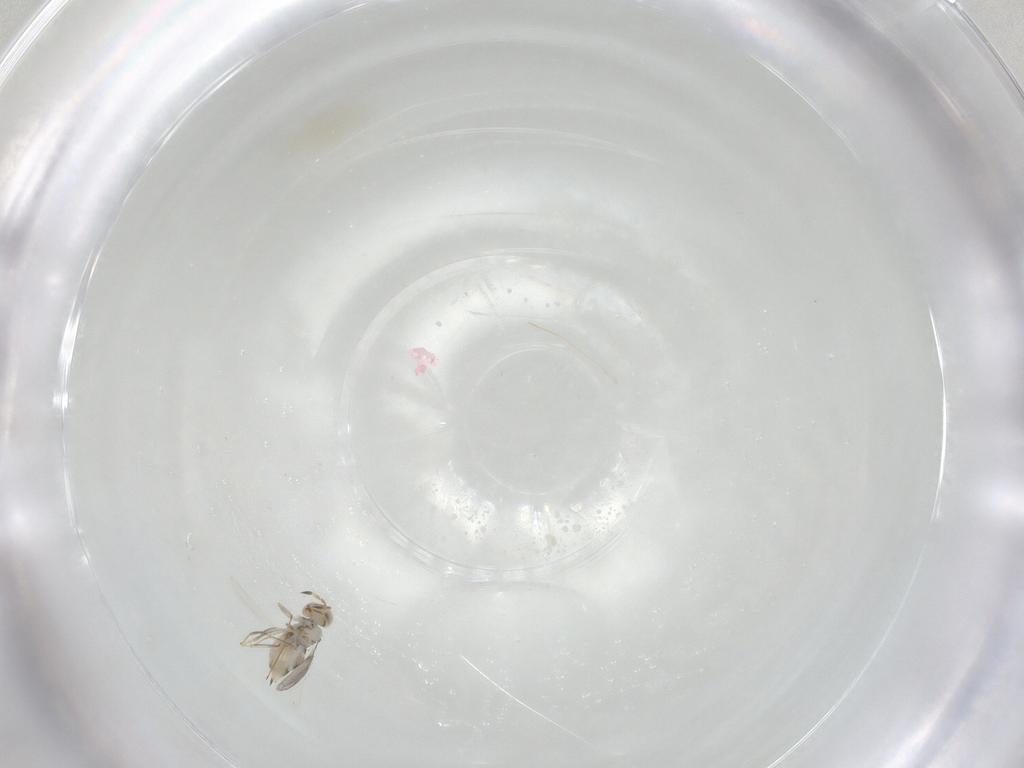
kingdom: Animalia
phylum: Arthropoda
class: Insecta
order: Hymenoptera
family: Aphelinidae
